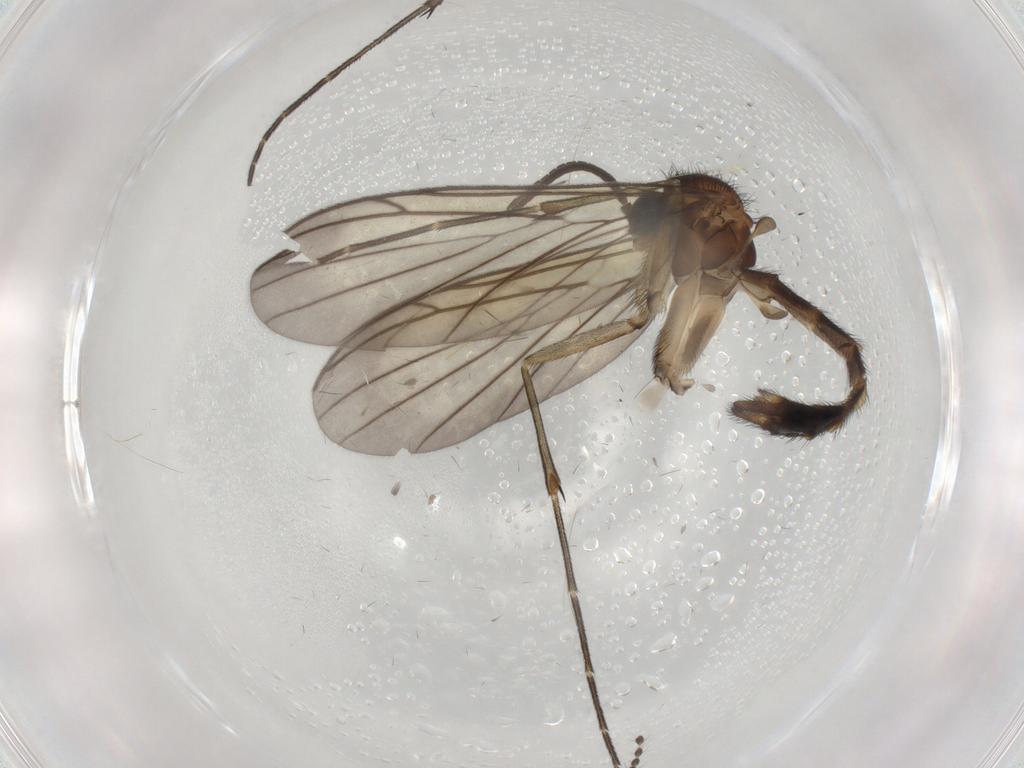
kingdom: Animalia
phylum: Arthropoda
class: Insecta
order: Diptera
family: Keroplatidae
